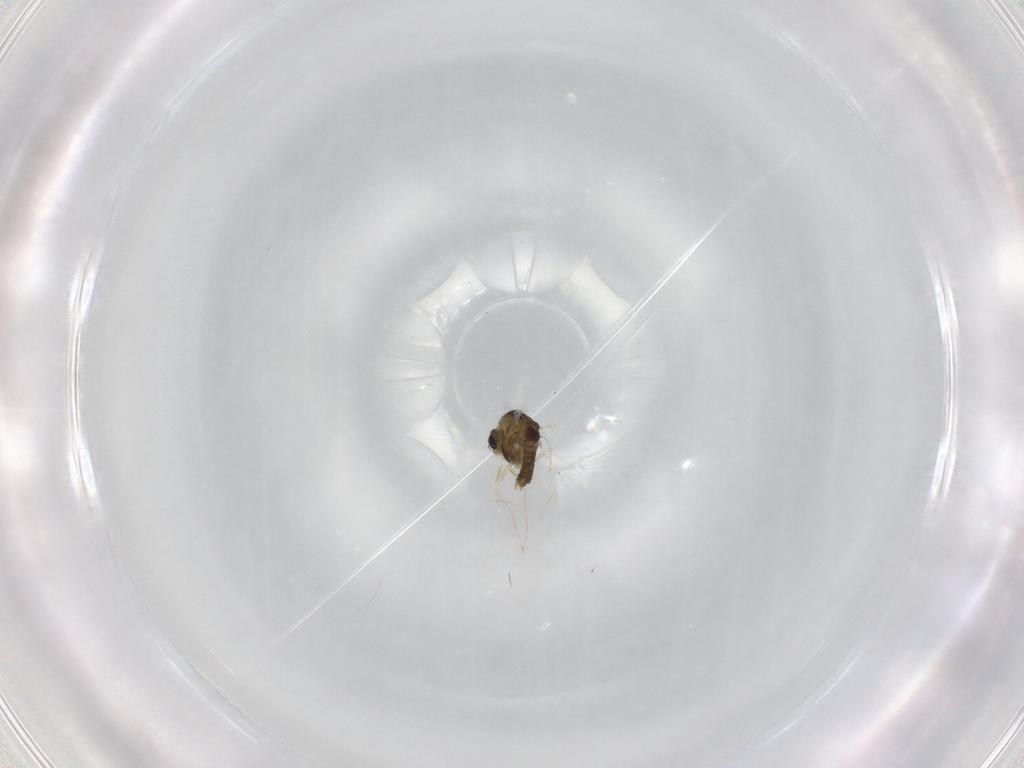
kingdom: Animalia
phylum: Arthropoda
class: Insecta
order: Diptera
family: Chironomidae
